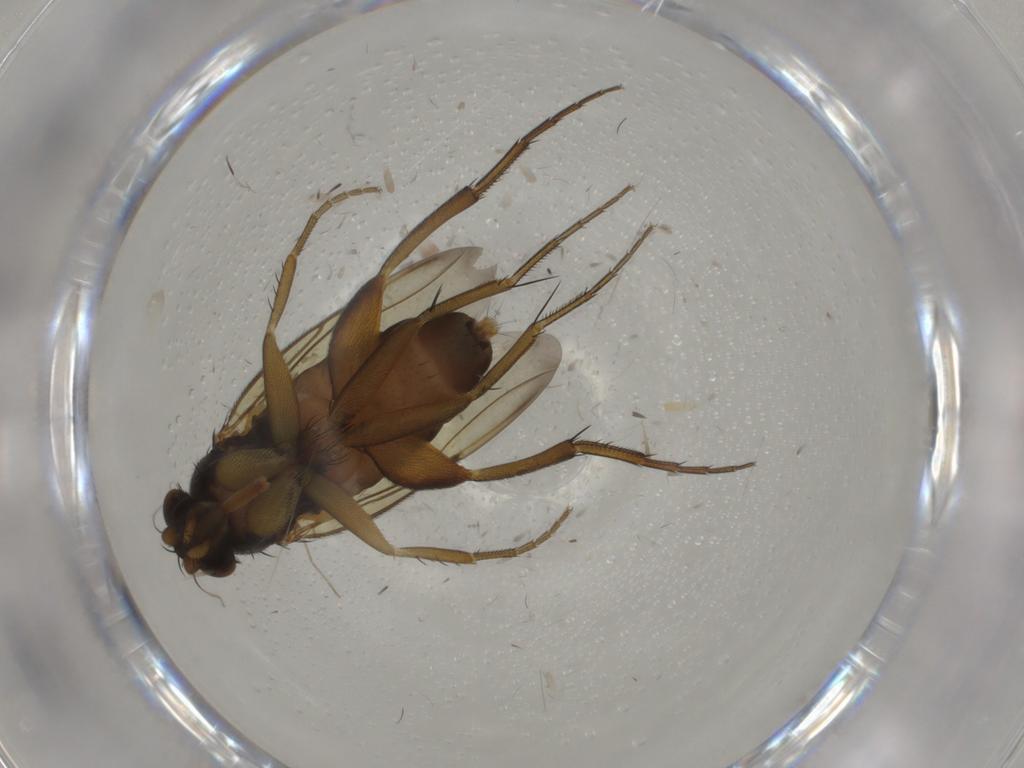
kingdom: Animalia
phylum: Arthropoda
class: Insecta
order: Diptera
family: Phoridae
